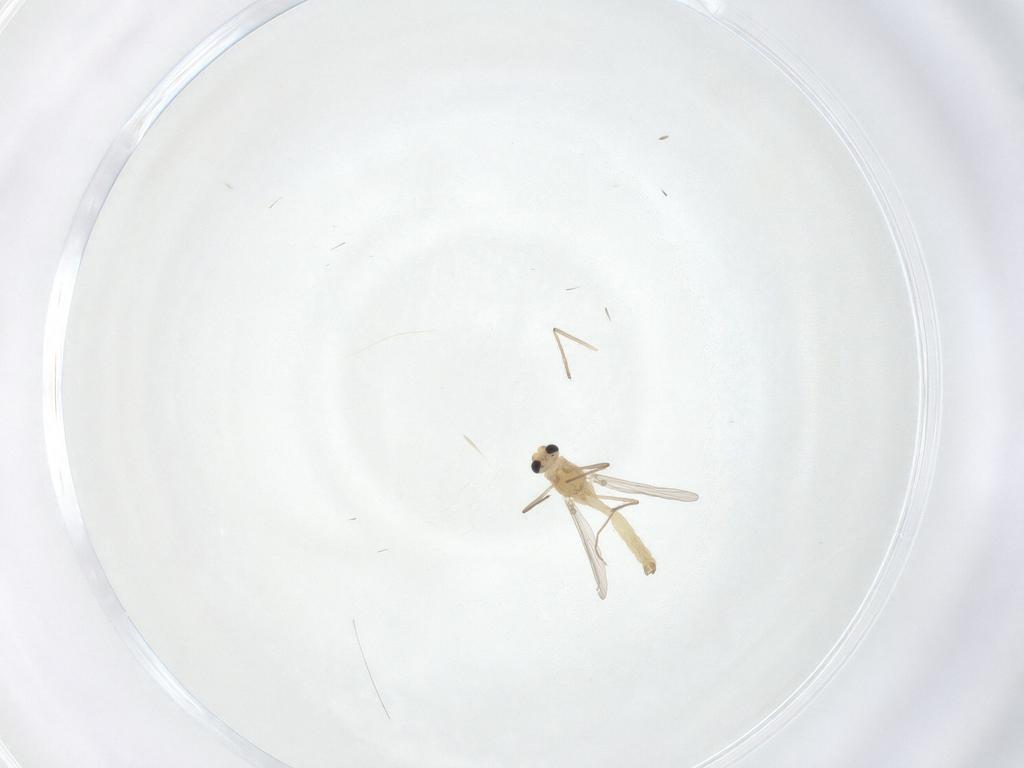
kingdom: Animalia
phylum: Arthropoda
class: Insecta
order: Diptera
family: Chironomidae
